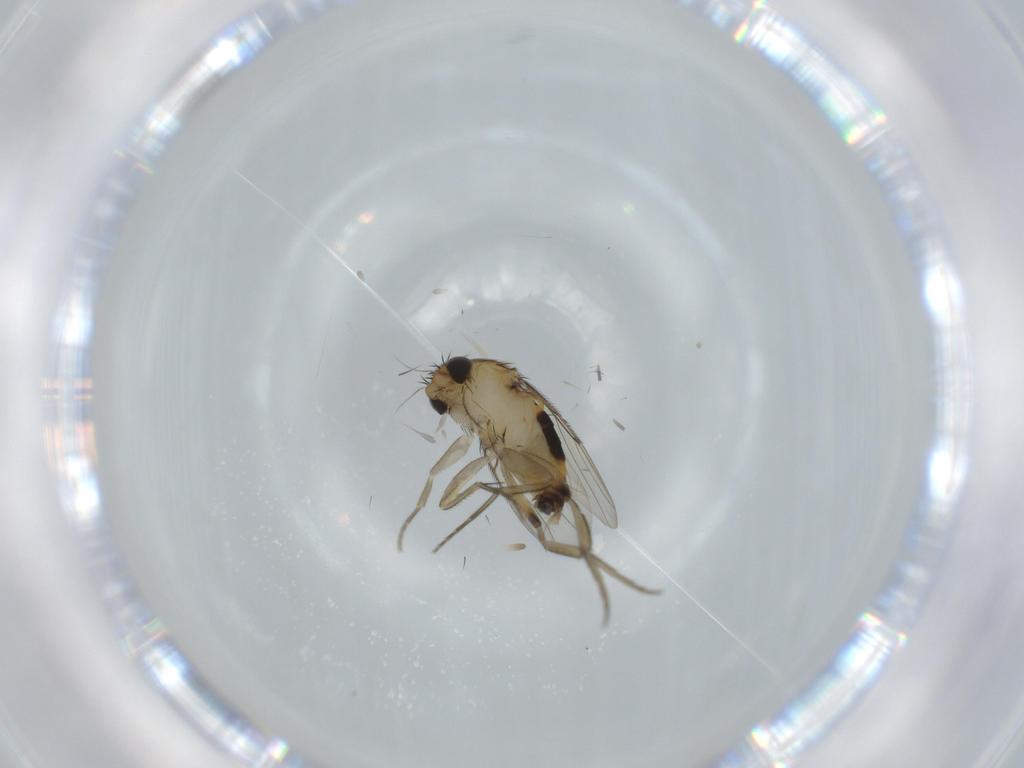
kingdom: Animalia
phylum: Arthropoda
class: Insecta
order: Diptera
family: Phoridae
